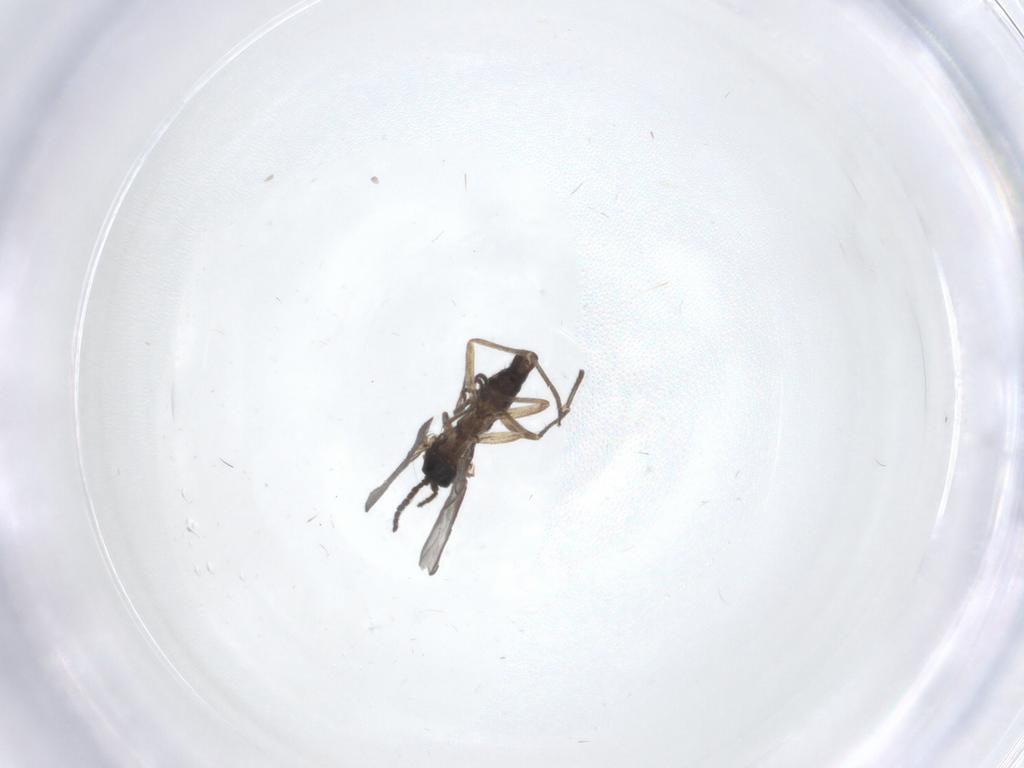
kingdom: Animalia
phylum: Arthropoda
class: Insecta
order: Diptera
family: Sciaridae
